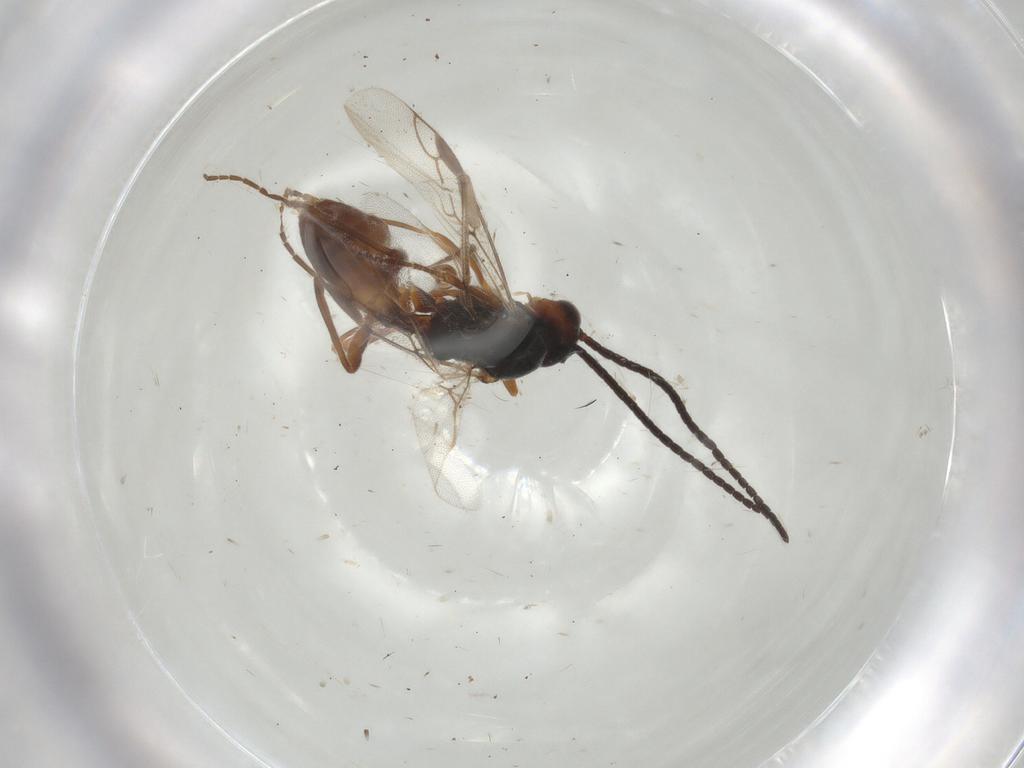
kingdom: Animalia
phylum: Arthropoda
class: Insecta
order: Hymenoptera
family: Braconidae
